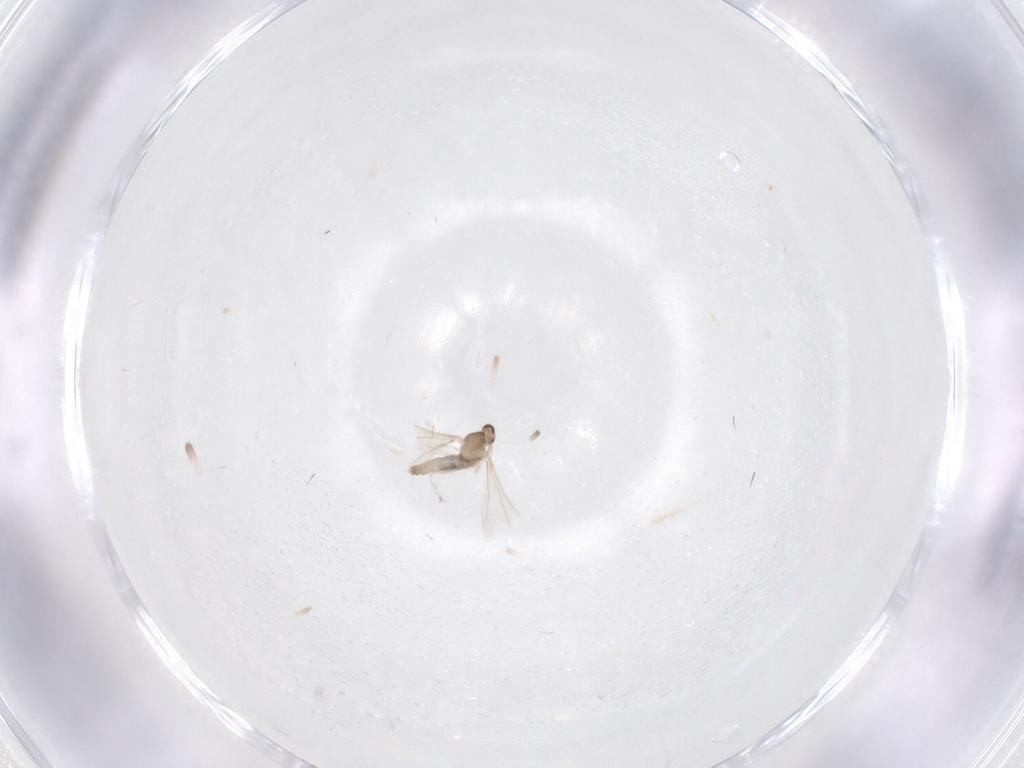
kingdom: Animalia
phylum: Arthropoda
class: Insecta
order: Diptera
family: Cecidomyiidae
